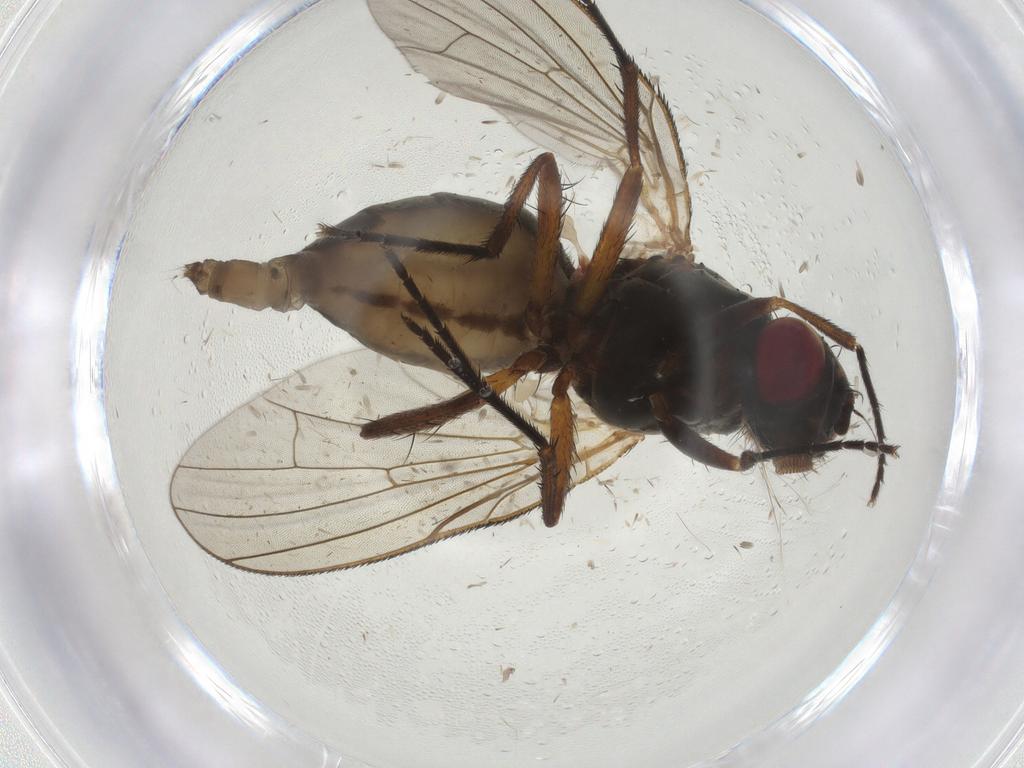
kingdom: Animalia
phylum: Arthropoda
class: Insecta
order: Diptera
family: Anthomyiidae
